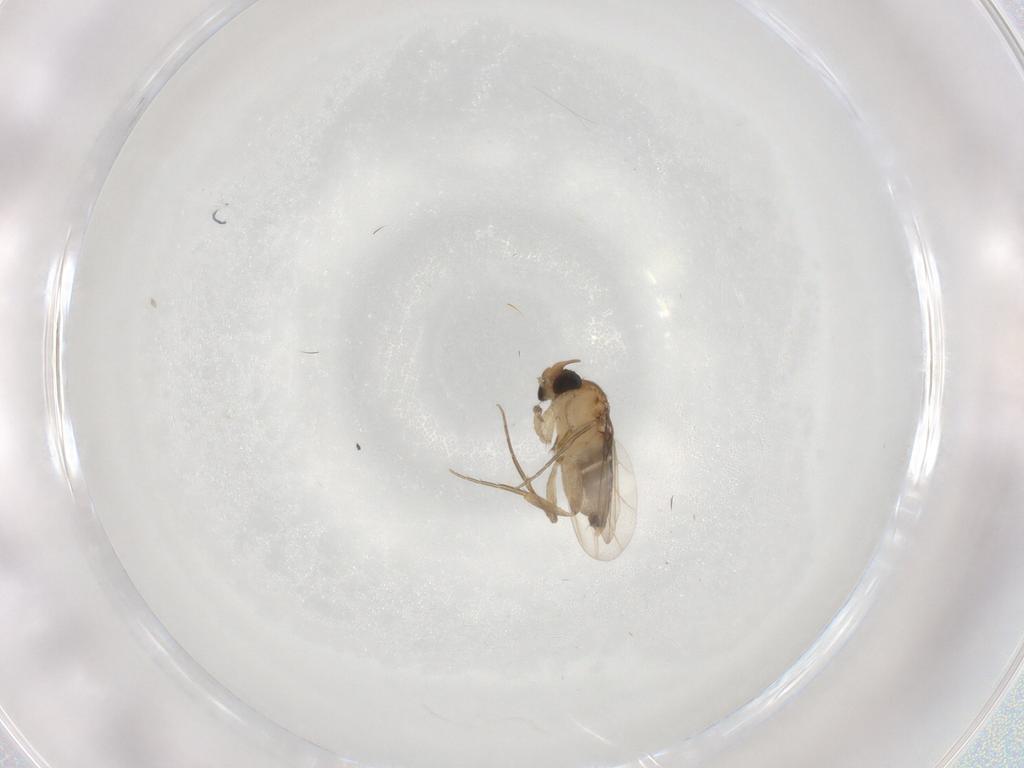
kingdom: Animalia
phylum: Arthropoda
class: Insecta
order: Diptera
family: Phoridae
